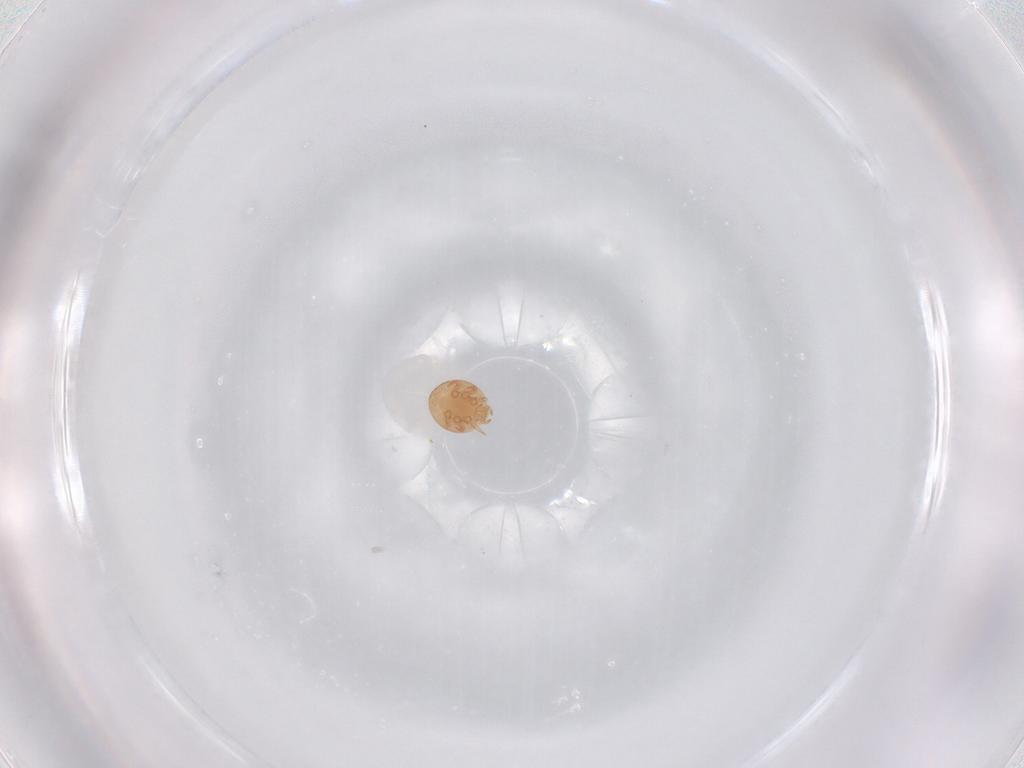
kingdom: Animalia
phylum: Arthropoda
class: Arachnida
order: Mesostigmata
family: Trematuridae
